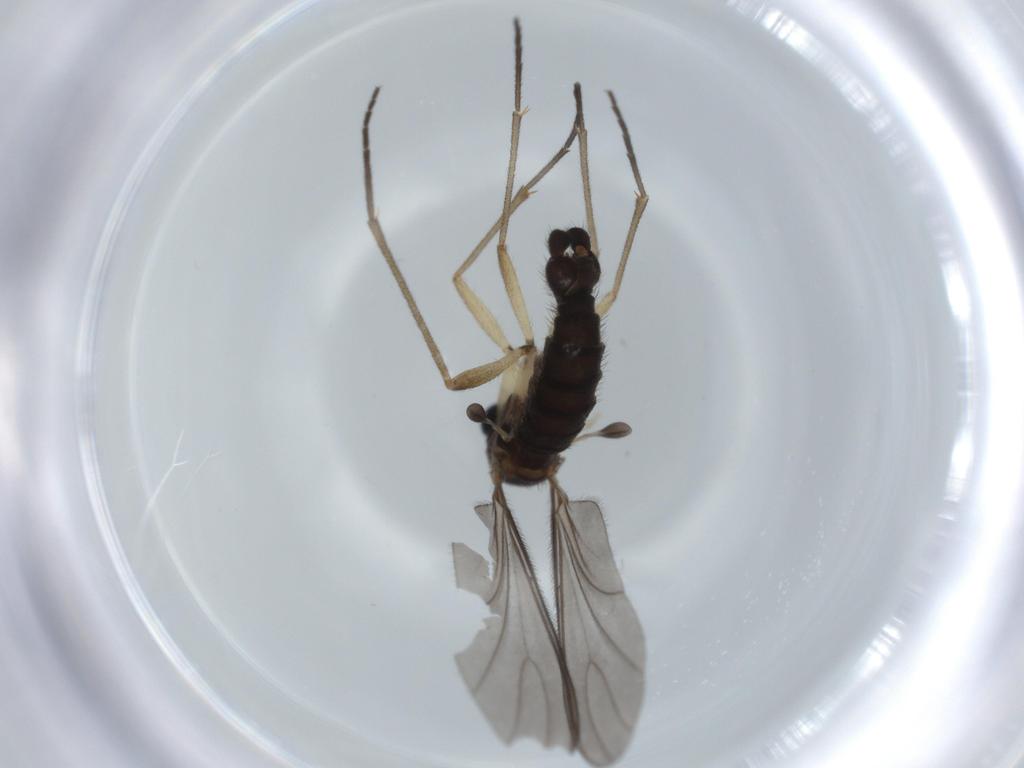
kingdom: Animalia
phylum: Arthropoda
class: Insecta
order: Diptera
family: Sciaridae
